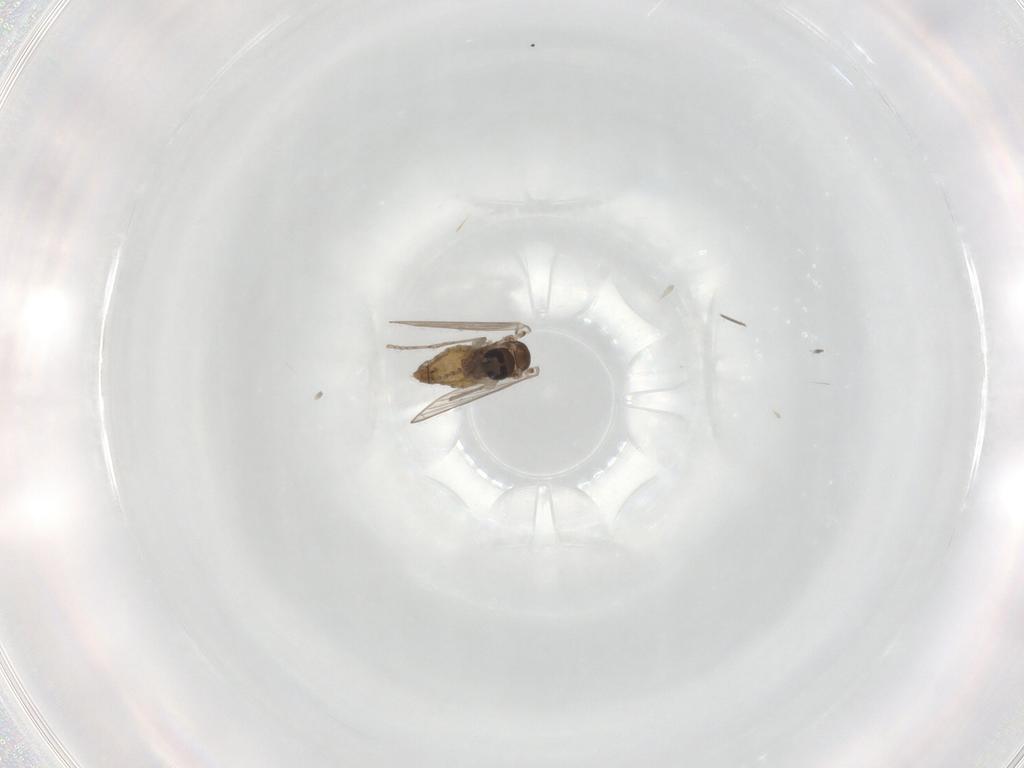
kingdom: Animalia
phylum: Arthropoda
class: Insecta
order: Diptera
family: Psychodidae
